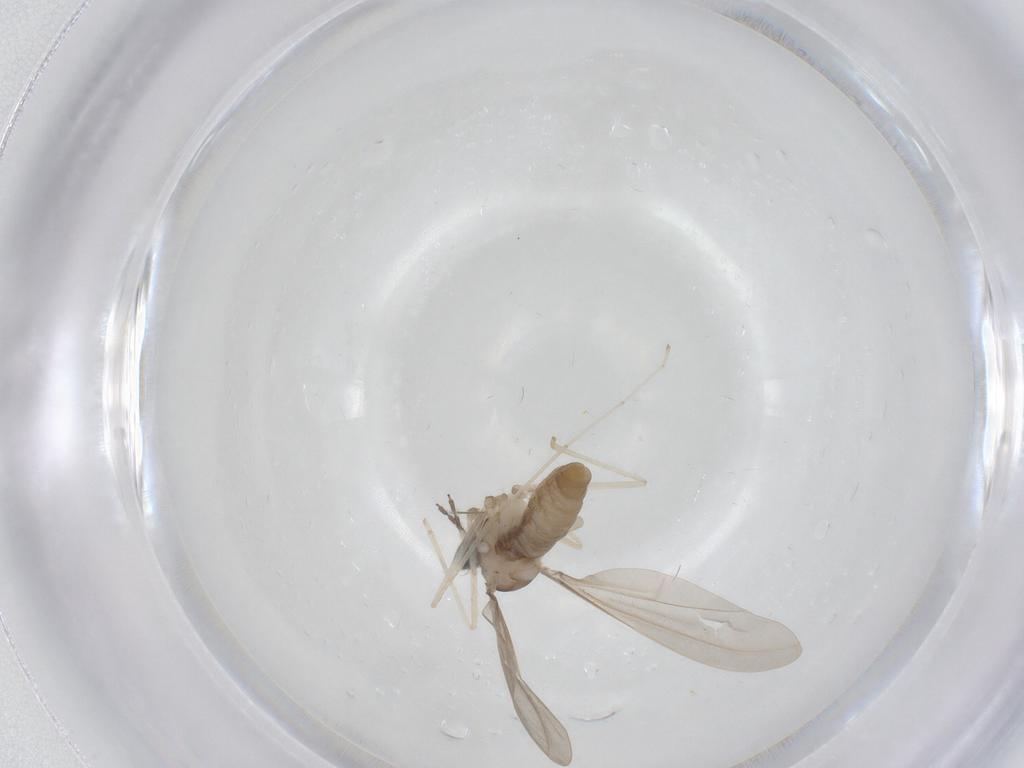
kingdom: Animalia
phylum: Arthropoda
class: Insecta
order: Diptera
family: Cecidomyiidae
